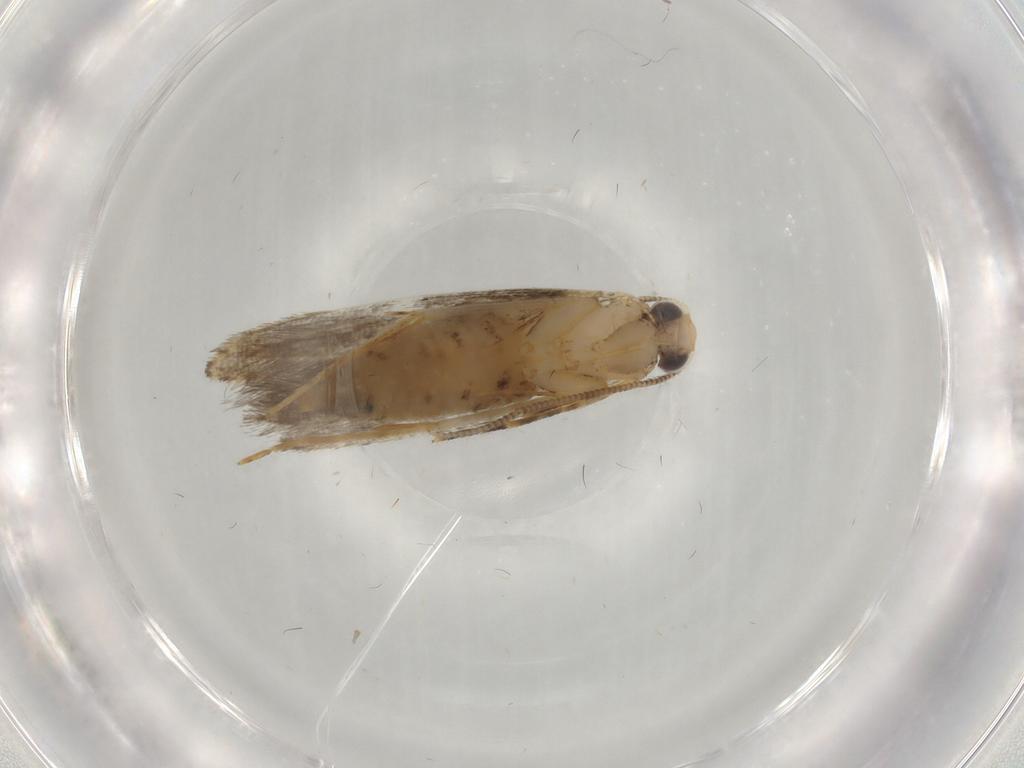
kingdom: Animalia
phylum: Arthropoda
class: Insecta
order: Lepidoptera
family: Tineidae
